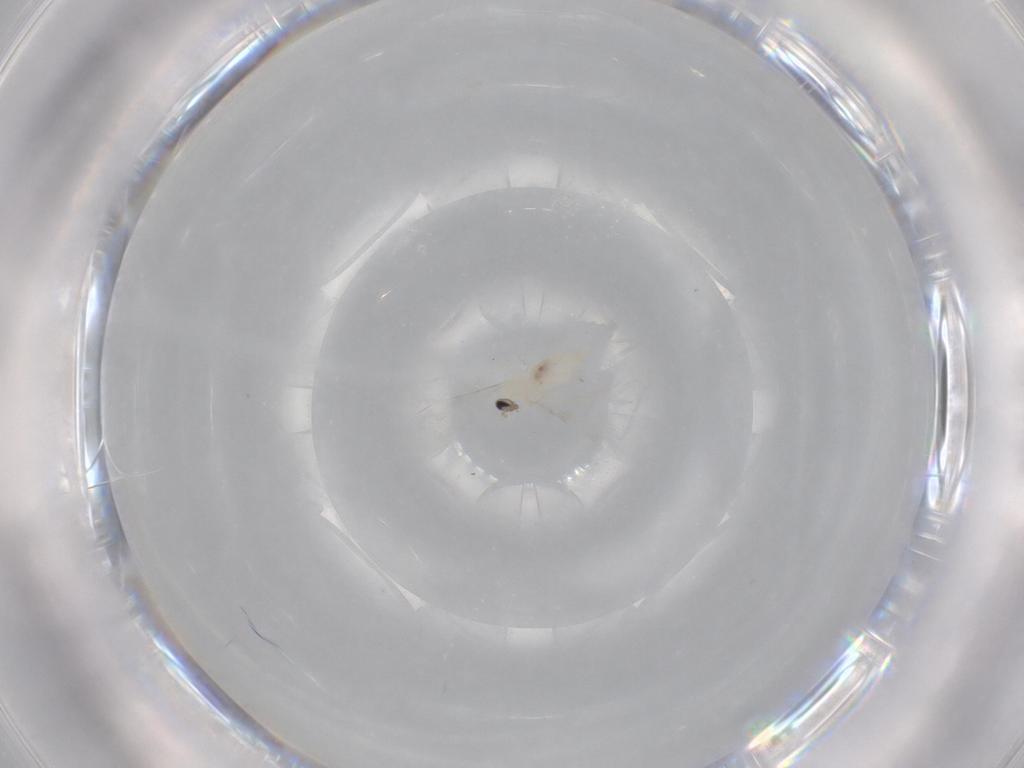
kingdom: Animalia
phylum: Arthropoda
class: Insecta
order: Diptera
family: Cecidomyiidae
